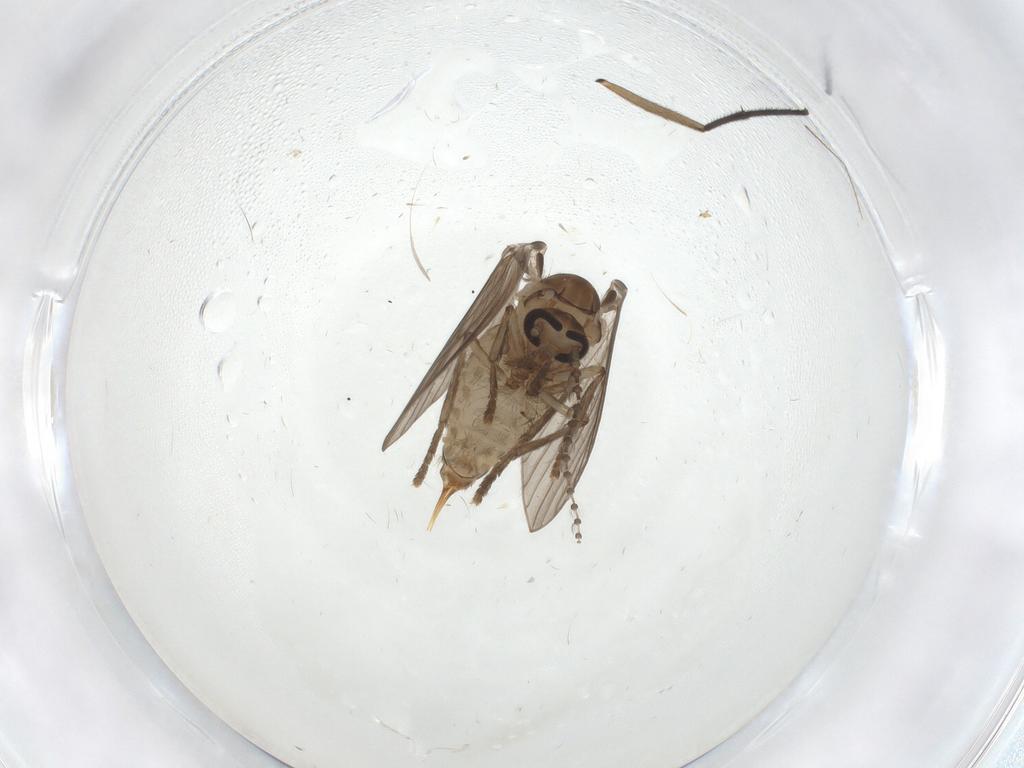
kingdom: Animalia
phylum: Arthropoda
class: Insecta
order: Diptera
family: Psychodidae
